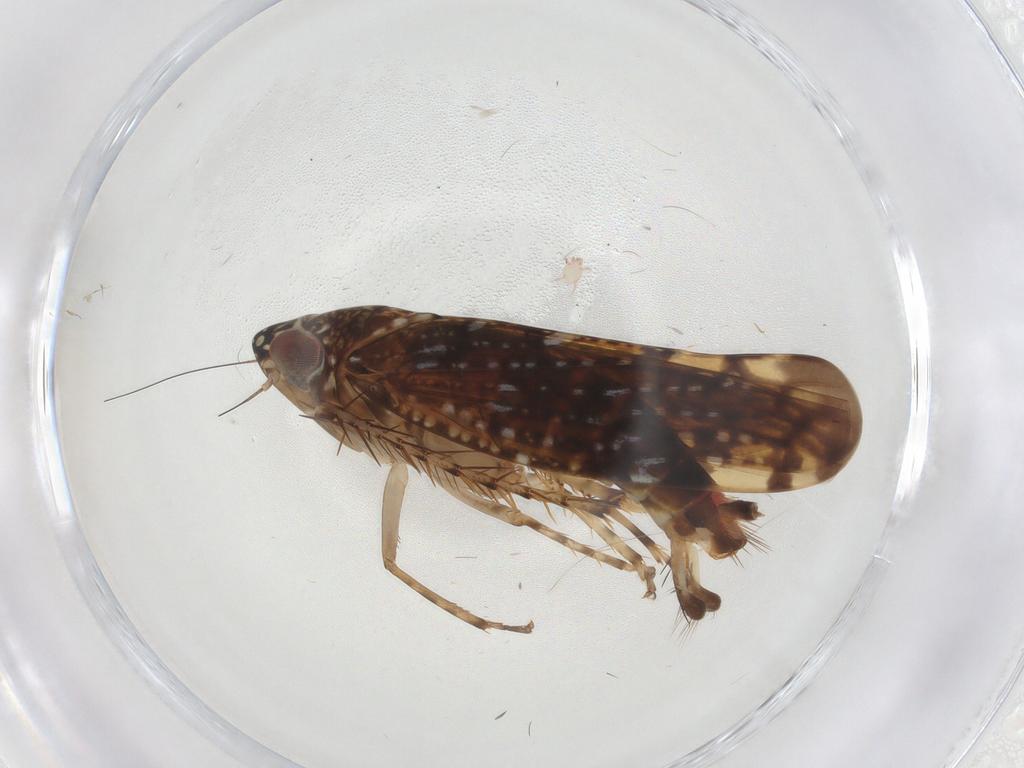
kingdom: Animalia
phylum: Arthropoda
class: Insecta
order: Hemiptera
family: Cicadellidae
